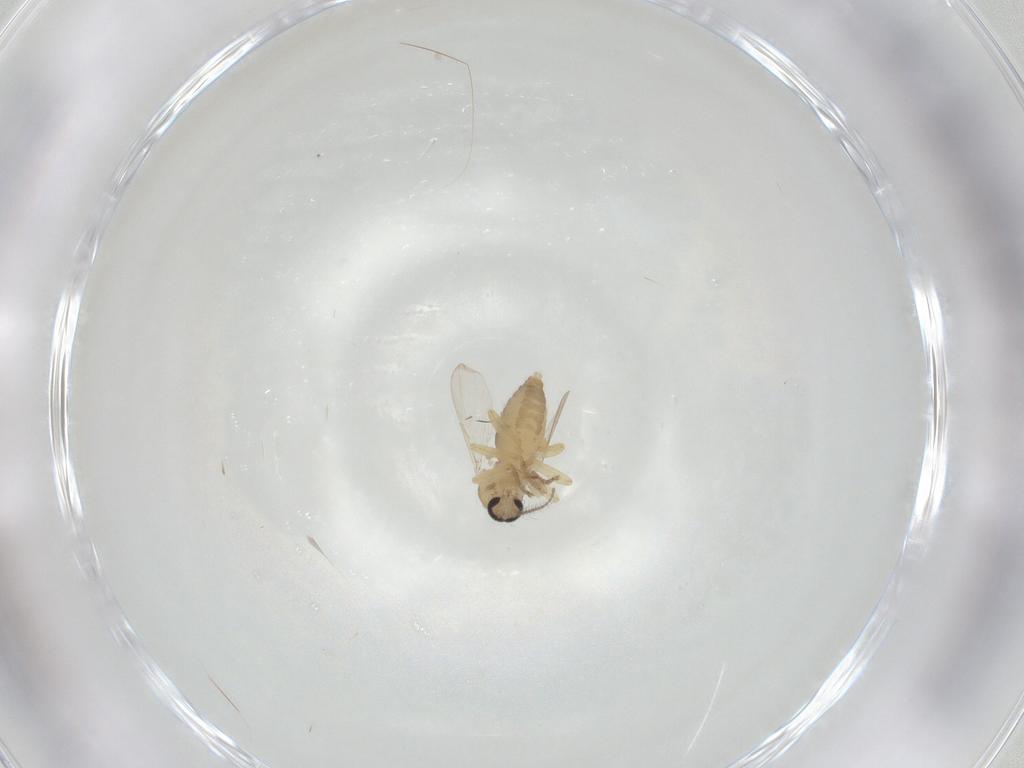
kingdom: Animalia
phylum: Arthropoda
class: Insecta
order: Diptera
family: Ceratopogonidae
